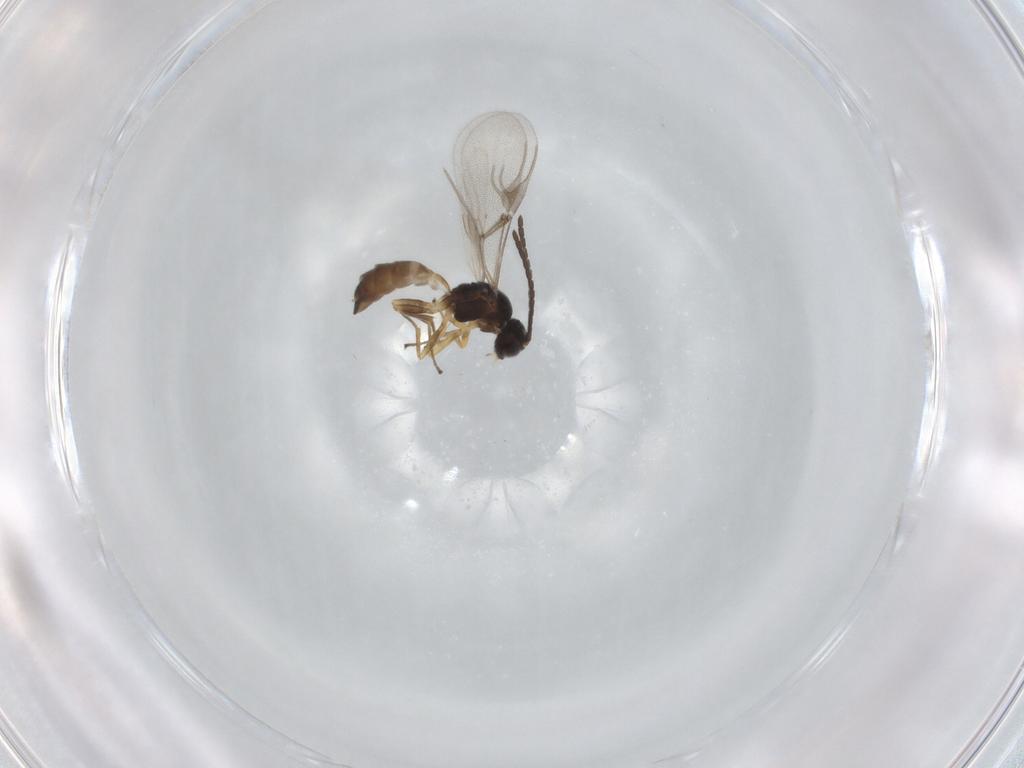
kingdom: Animalia
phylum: Arthropoda
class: Insecta
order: Hymenoptera
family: Braconidae
